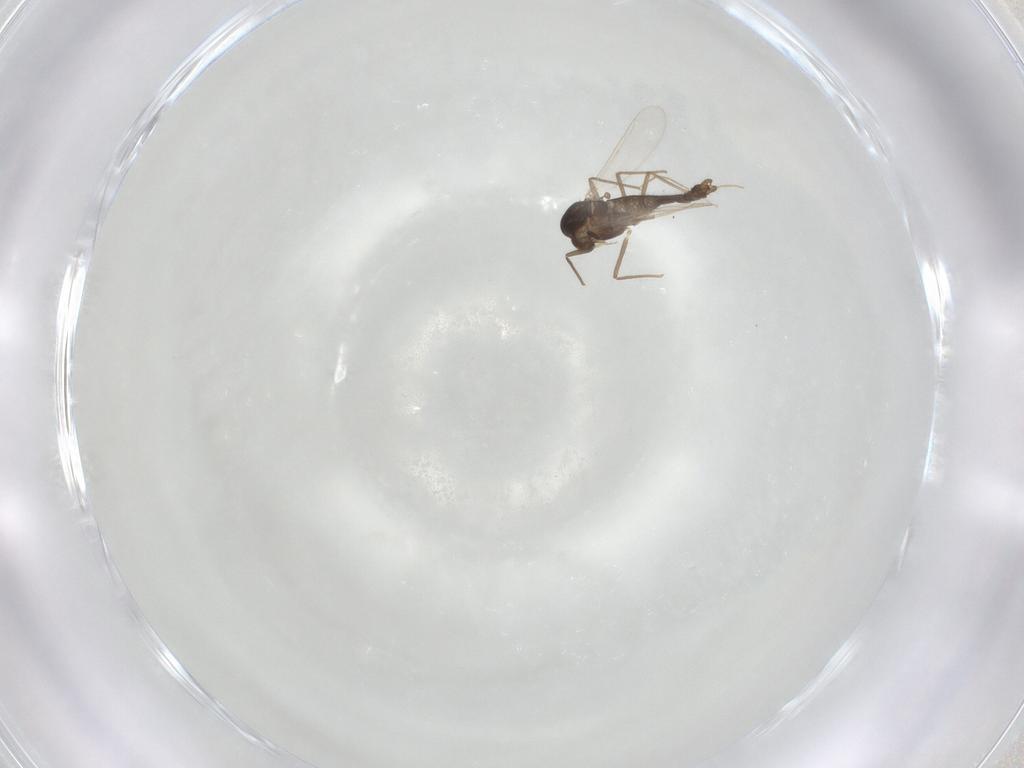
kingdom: Animalia
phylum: Arthropoda
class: Insecta
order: Diptera
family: Chironomidae
